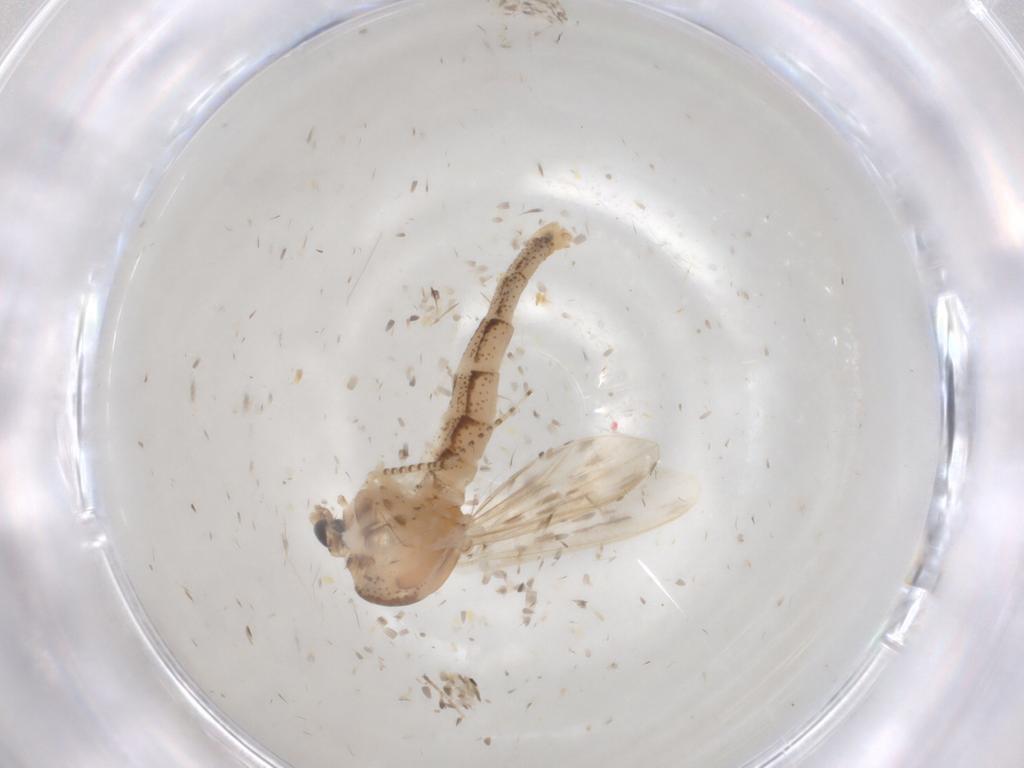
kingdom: Animalia
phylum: Arthropoda
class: Insecta
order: Diptera
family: Chaoboridae
